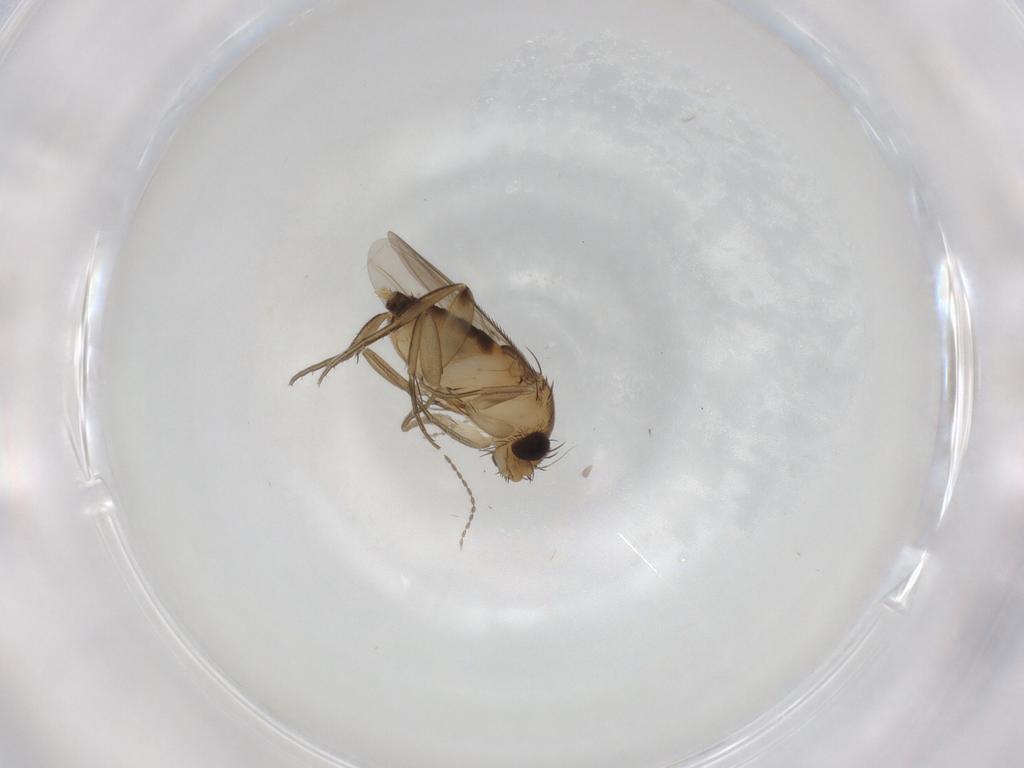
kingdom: Animalia
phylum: Arthropoda
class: Insecta
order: Diptera
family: Phoridae
